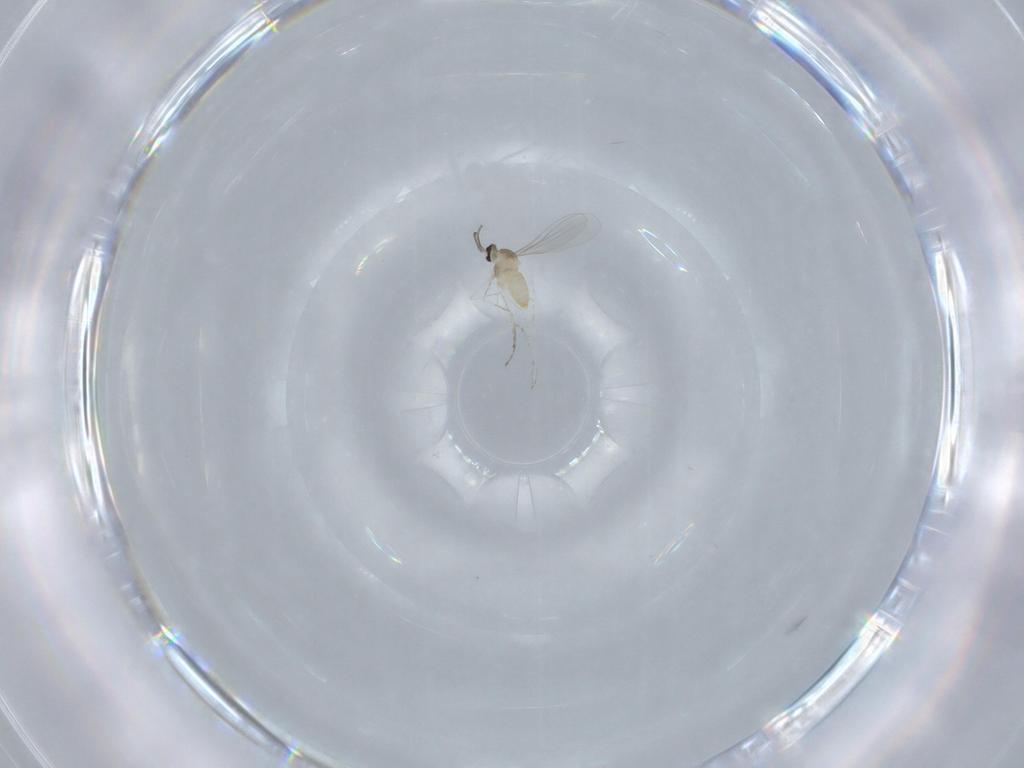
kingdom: Animalia
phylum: Arthropoda
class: Insecta
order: Diptera
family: Cecidomyiidae
